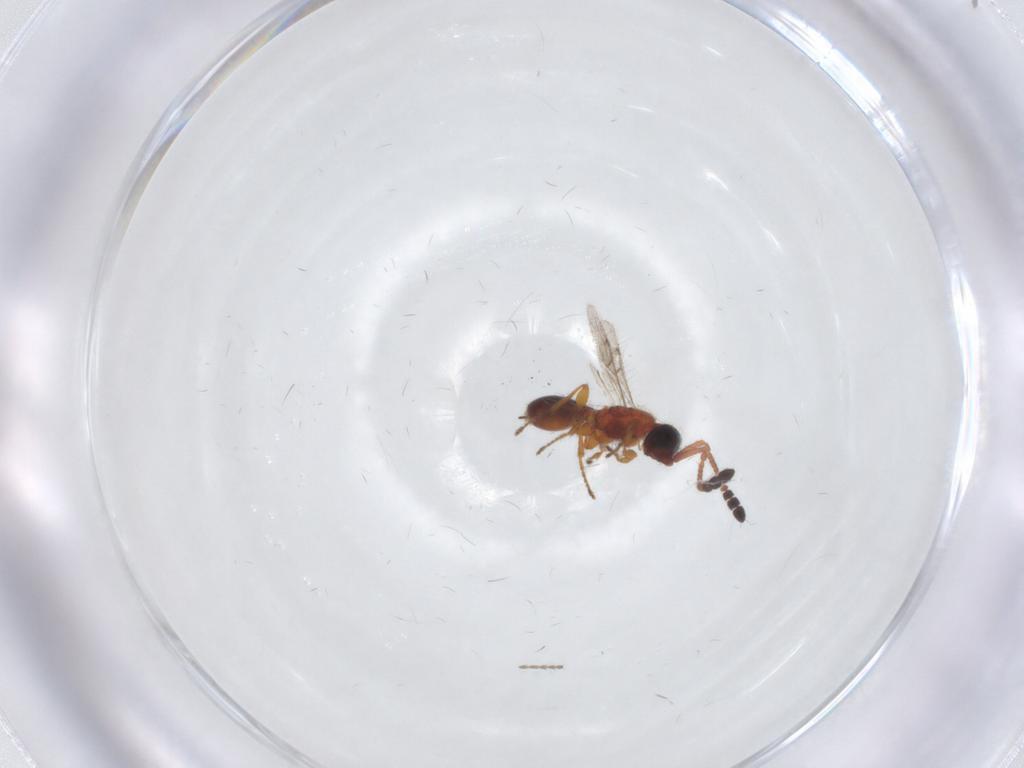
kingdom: Animalia
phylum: Arthropoda
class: Insecta
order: Hymenoptera
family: Diapriidae
